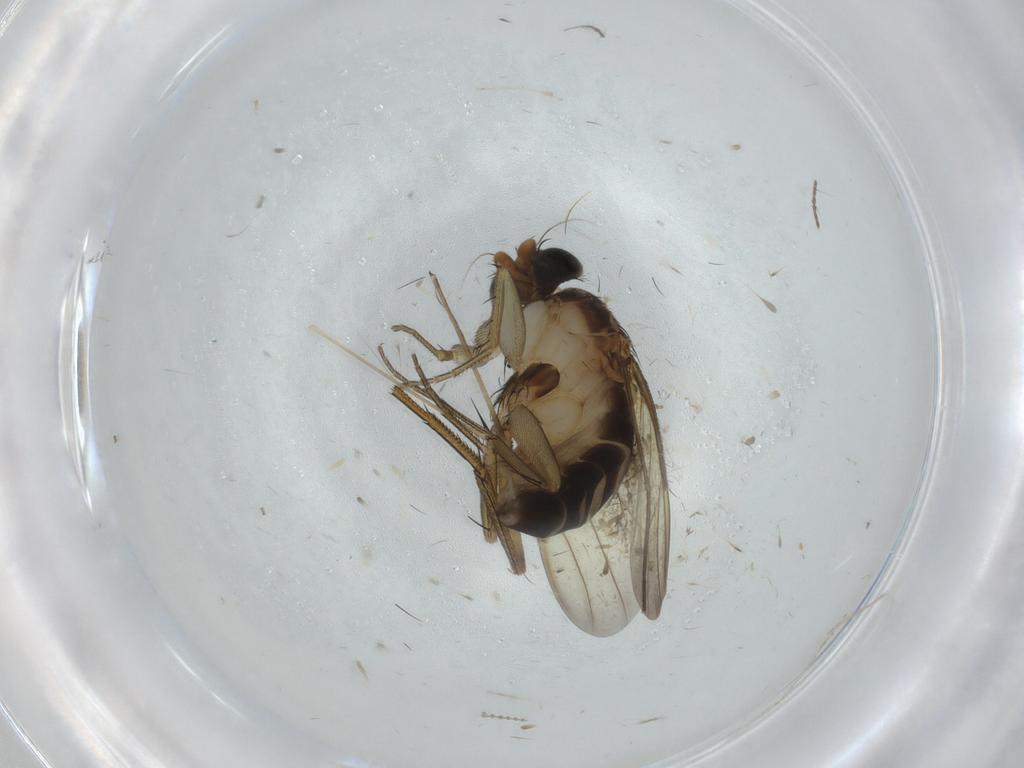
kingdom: Animalia
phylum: Arthropoda
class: Insecta
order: Diptera
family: Ceratopogonidae
